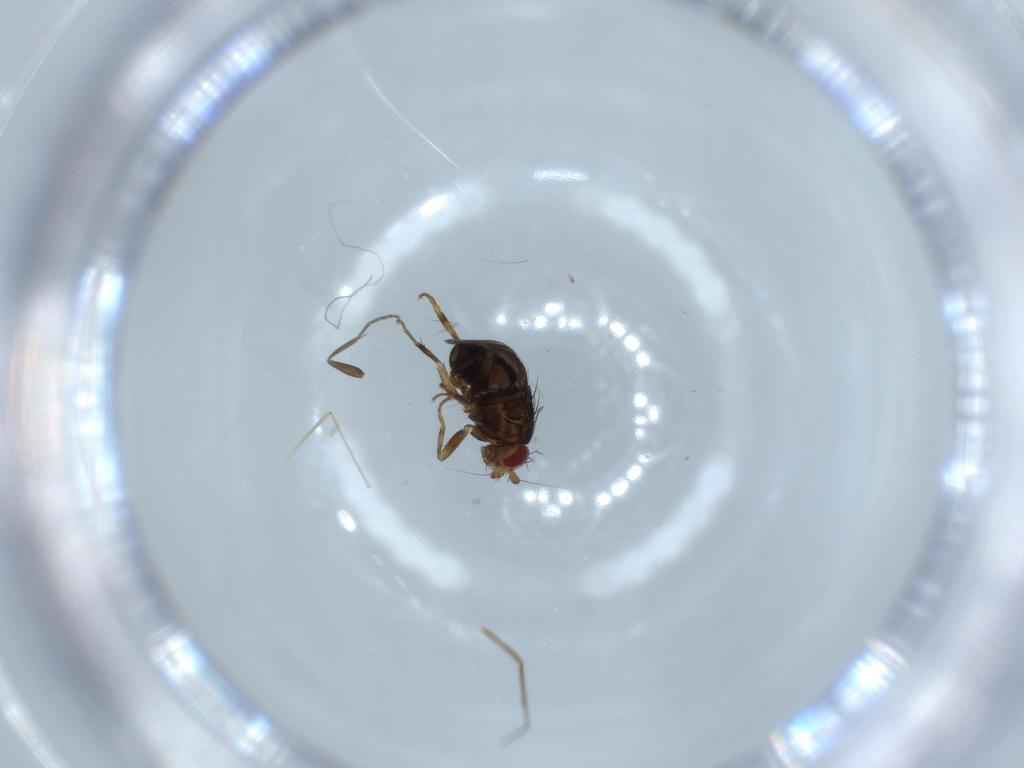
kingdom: Animalia
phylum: Arthropoda
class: Insecta
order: Diptera
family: Sphaeroceridae
